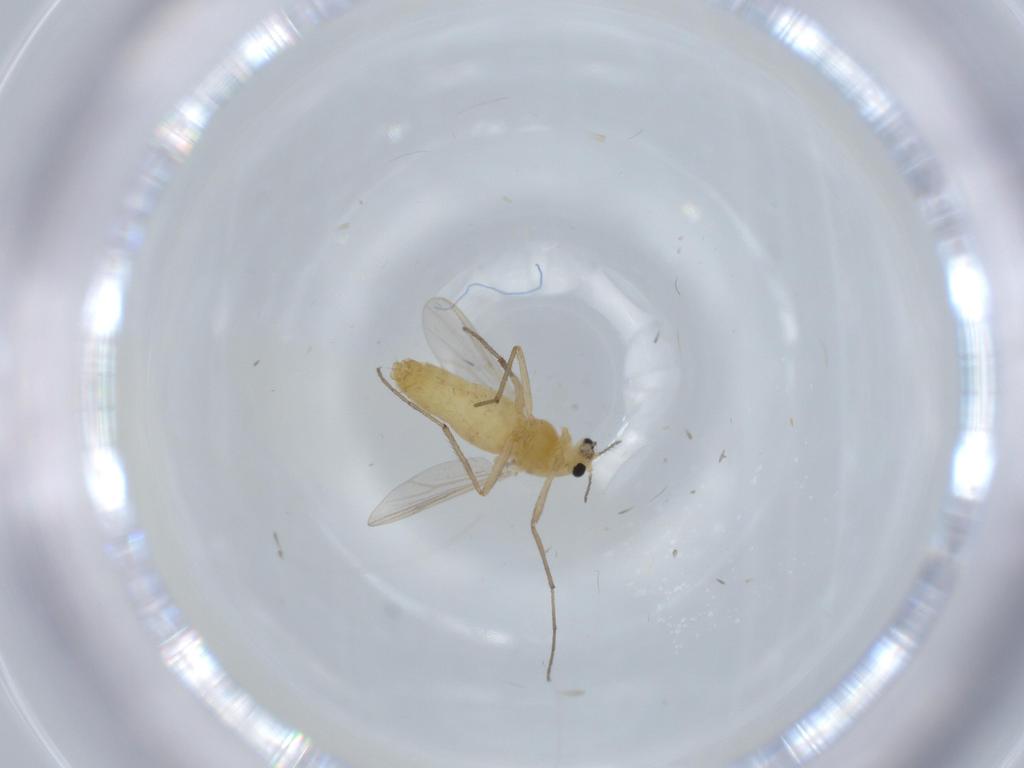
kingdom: Animalia
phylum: Arthropoda
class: Insecta
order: Diptera
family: Chironomidae
